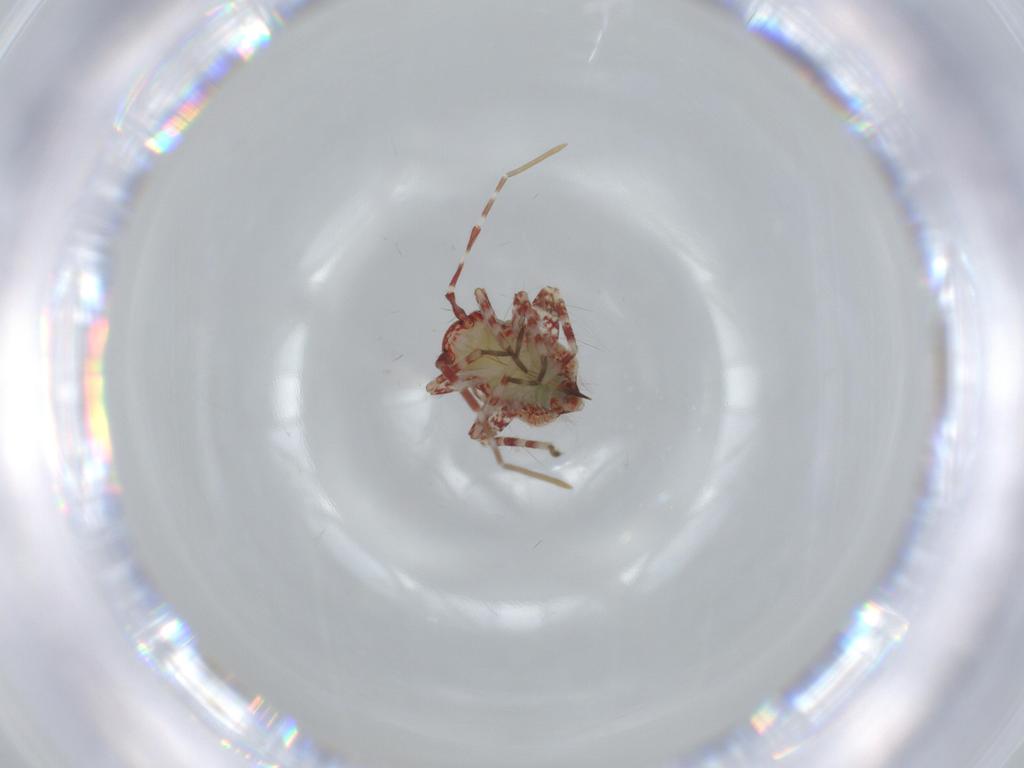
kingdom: Animalia
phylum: Arthropoda
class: Insecta
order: Hemiptera
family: Miridae
